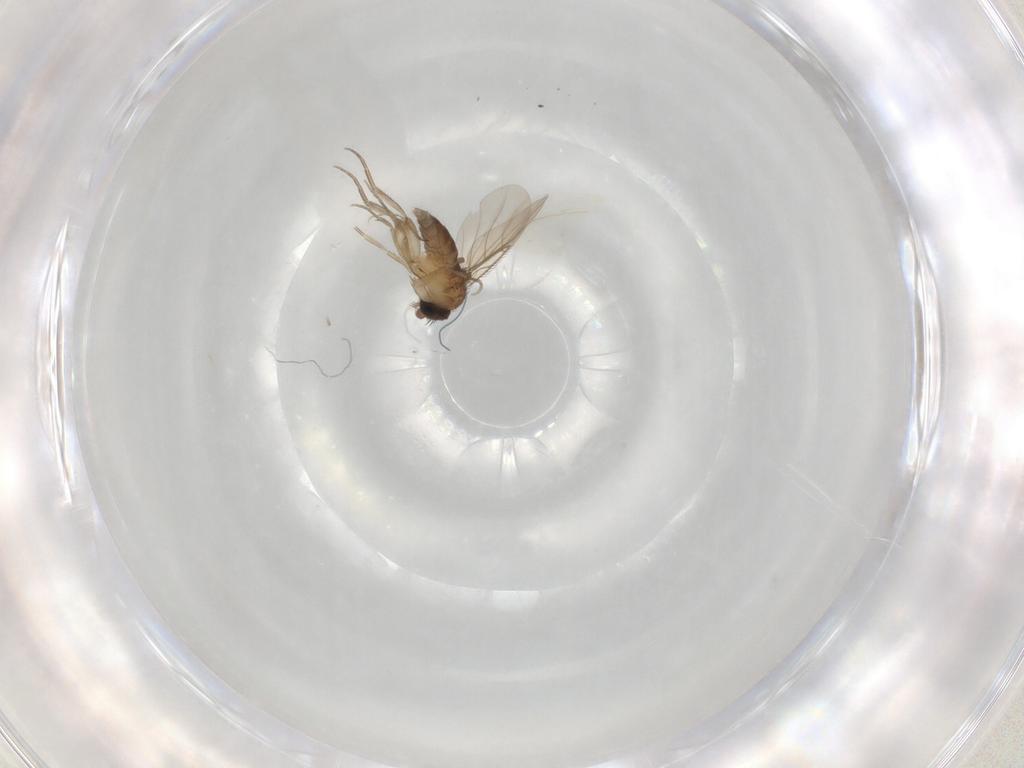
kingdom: Animalia
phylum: Arthropoda
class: Insecta
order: Diptera
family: Phoridae
